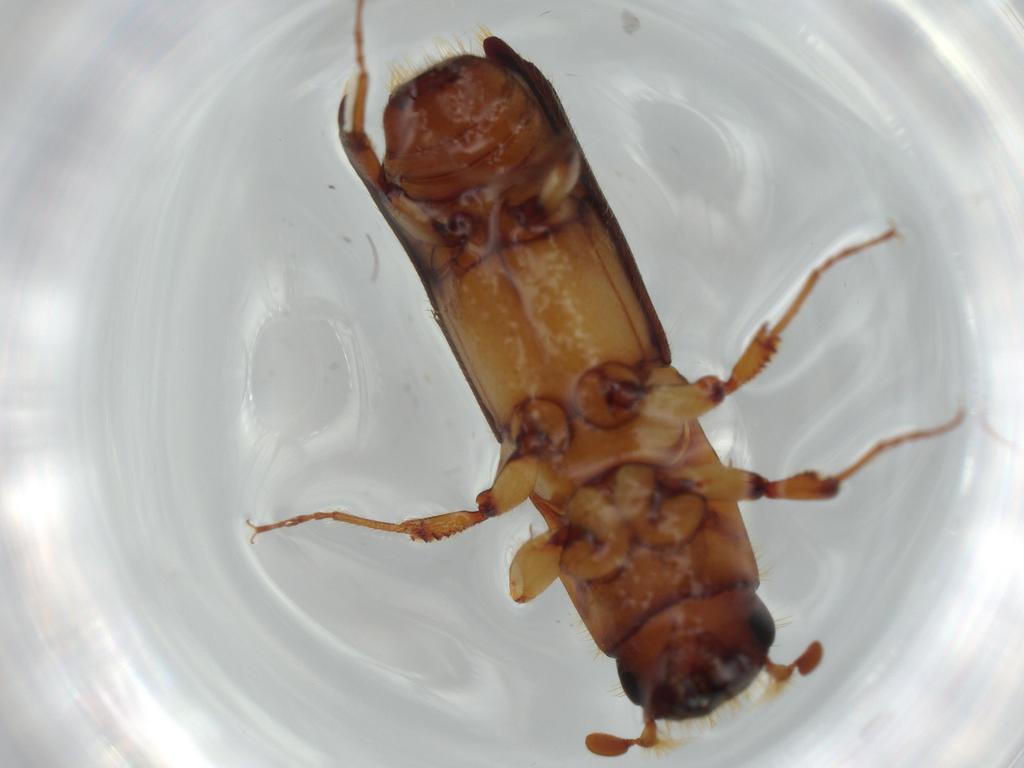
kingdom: Animalia
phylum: Arthropoda
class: Insecta
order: Coleoptera
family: Curculionidae
